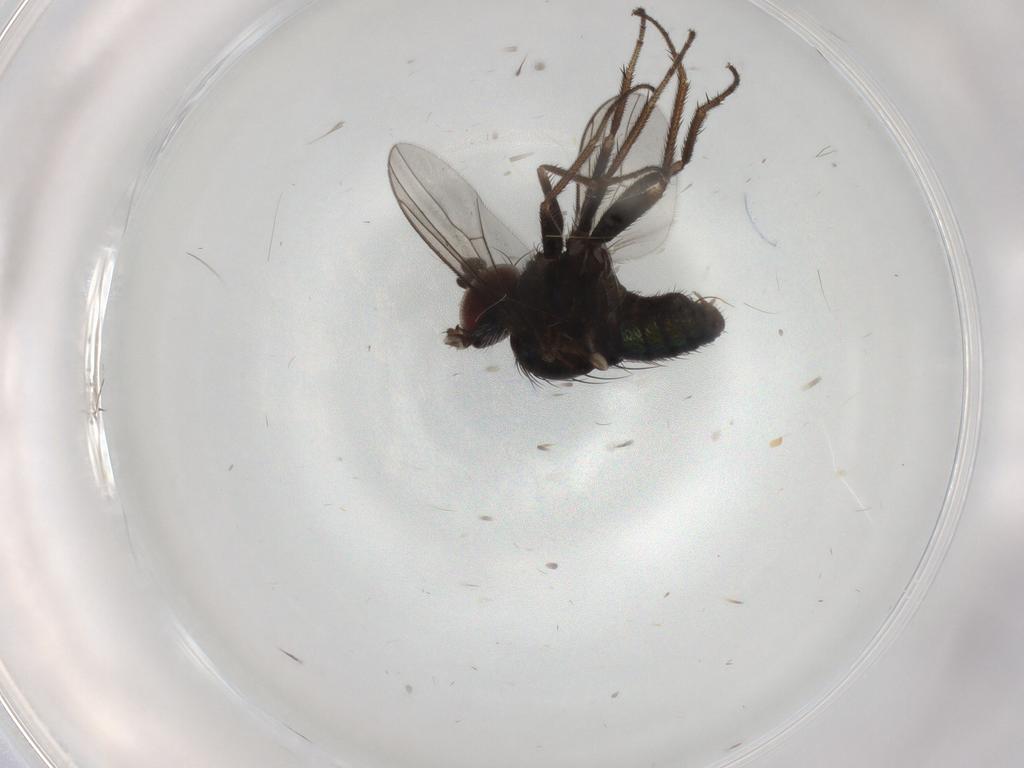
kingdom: Animalia
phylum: Arthropoda
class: Insecta
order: Diptera
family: Dolichopodidae
